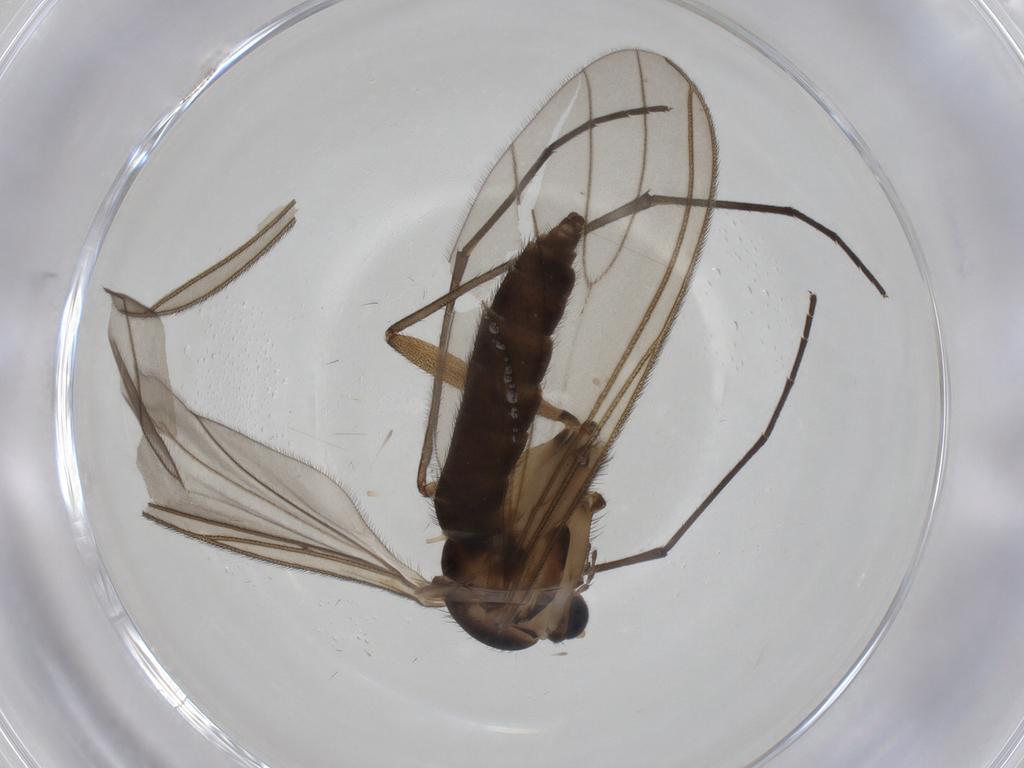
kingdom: Animalia
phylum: Arthropoda
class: Insecta
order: Diptera
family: Sciaridae
